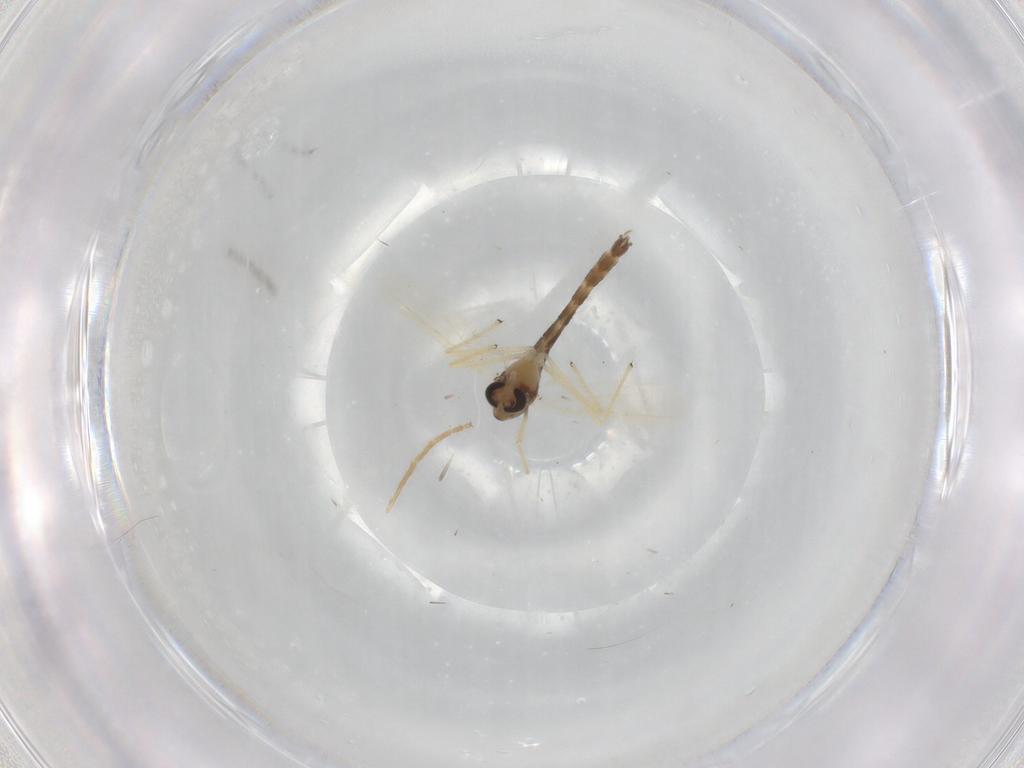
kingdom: Animalia
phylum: Arthropoda
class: Insecta
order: Diptera
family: Chironomidae
